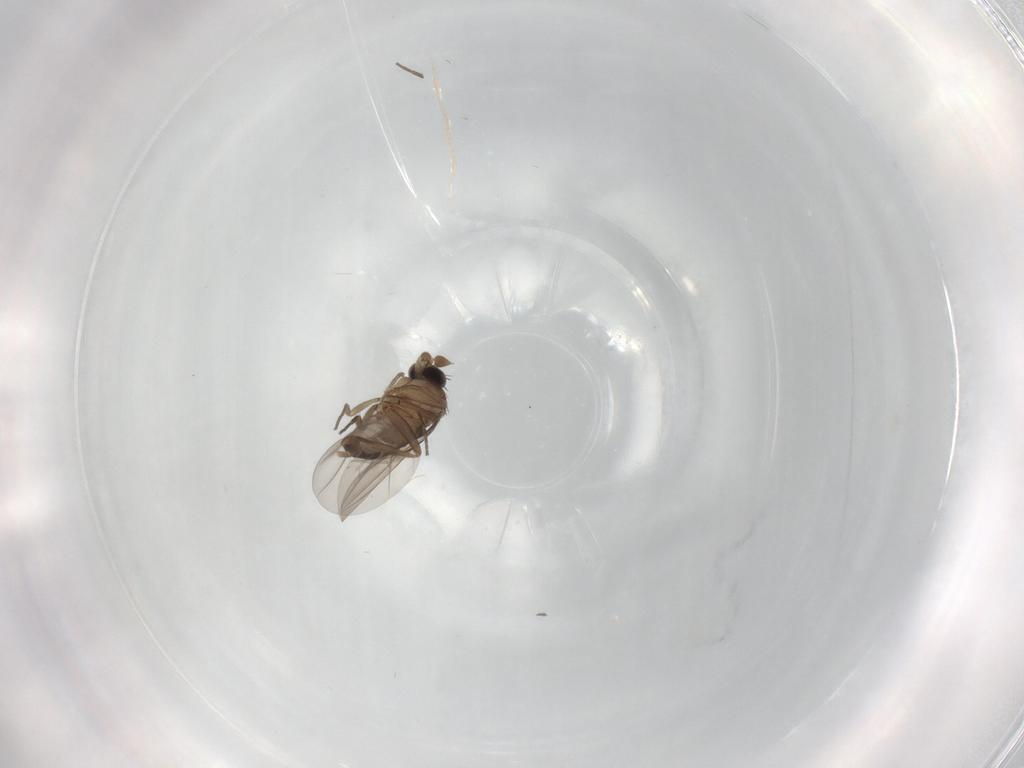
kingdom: Animalia
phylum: Arthropoda
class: Insecta
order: Diptera
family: Phoridae
